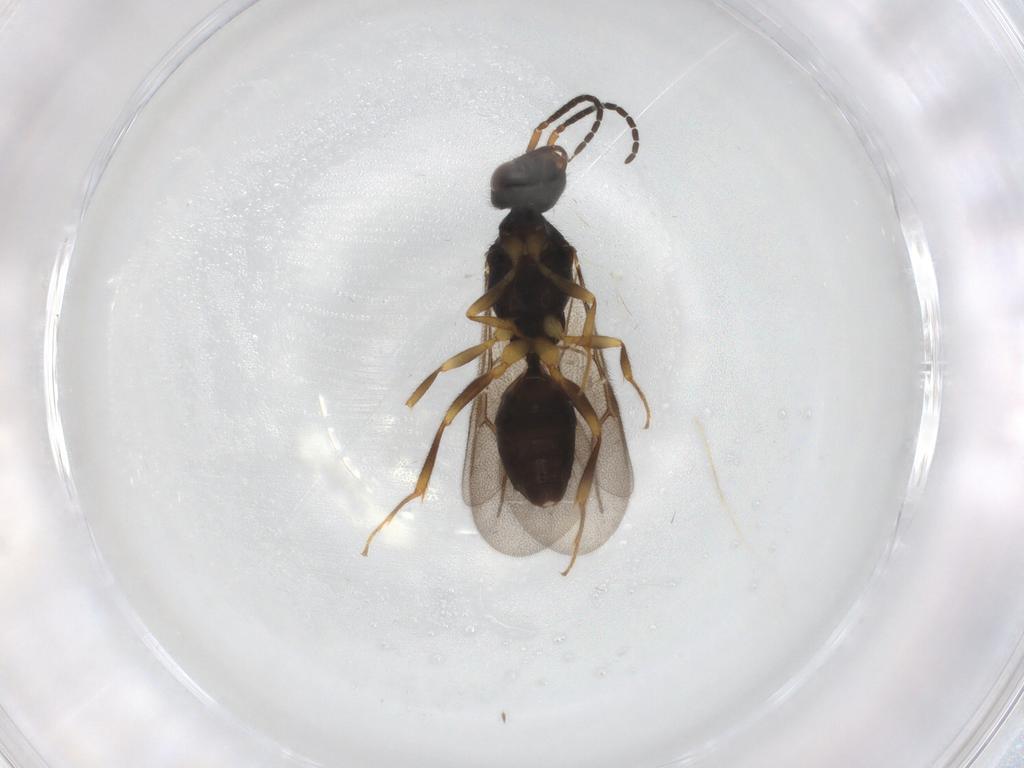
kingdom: Animalia
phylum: Arthropoda
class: Insecta
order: Hymenoptera
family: Bethylidae
